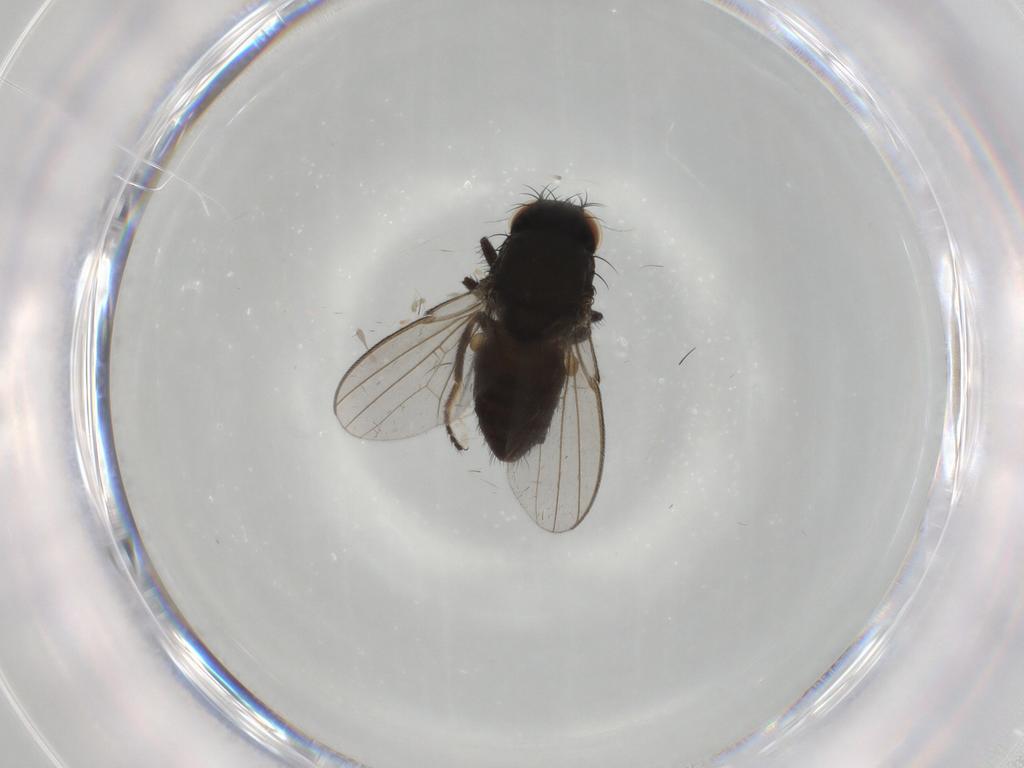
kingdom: Animalia
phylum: Arthropoda
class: Insecta
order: Diptera
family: Milichiidae
